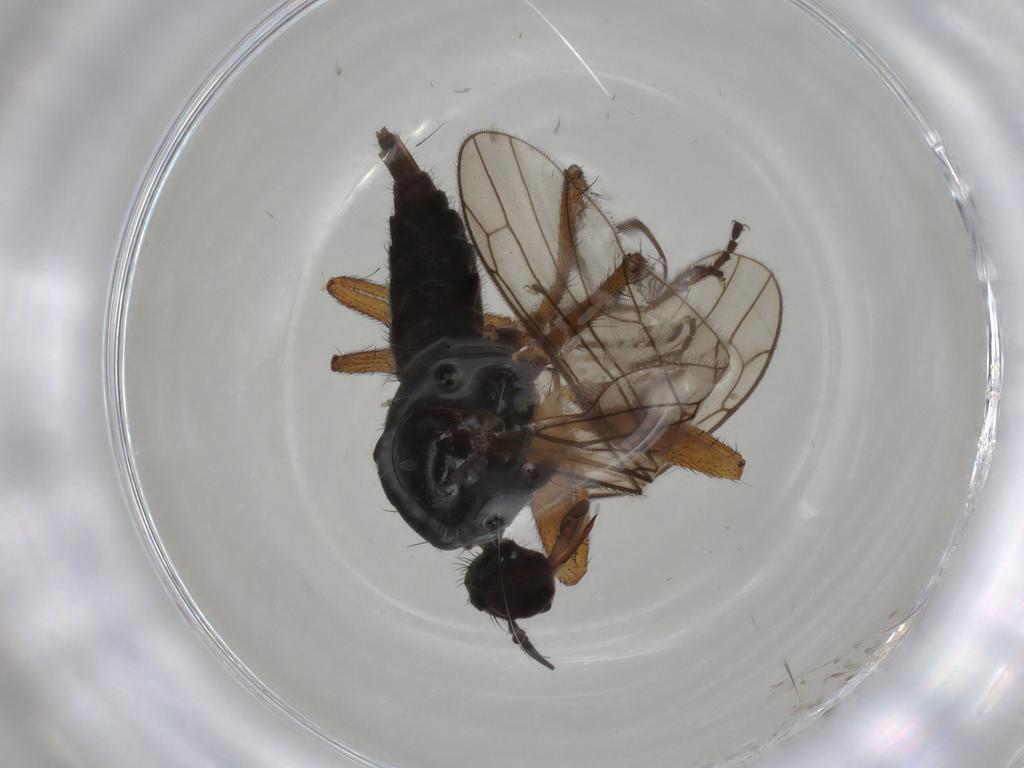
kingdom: Animalia
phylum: Arthropoda
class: Insecta
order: Diptera
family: Ceratopogonidae
